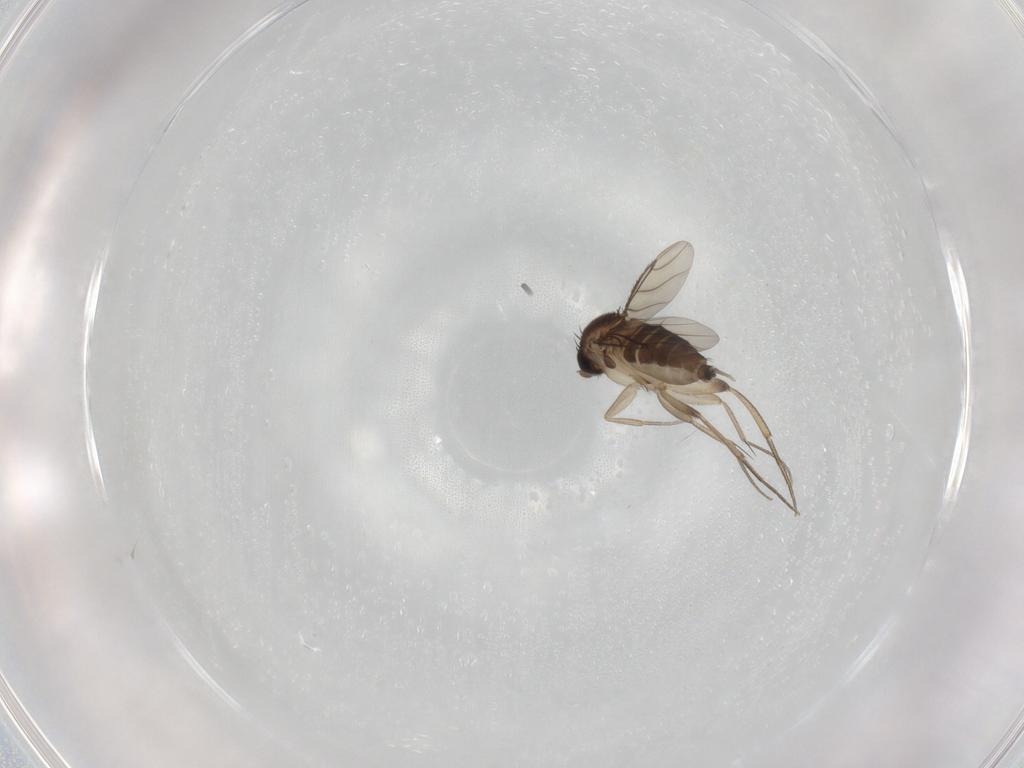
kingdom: Animalia
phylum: Arthropoda
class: Insecta
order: Diptera
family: Phoridae
